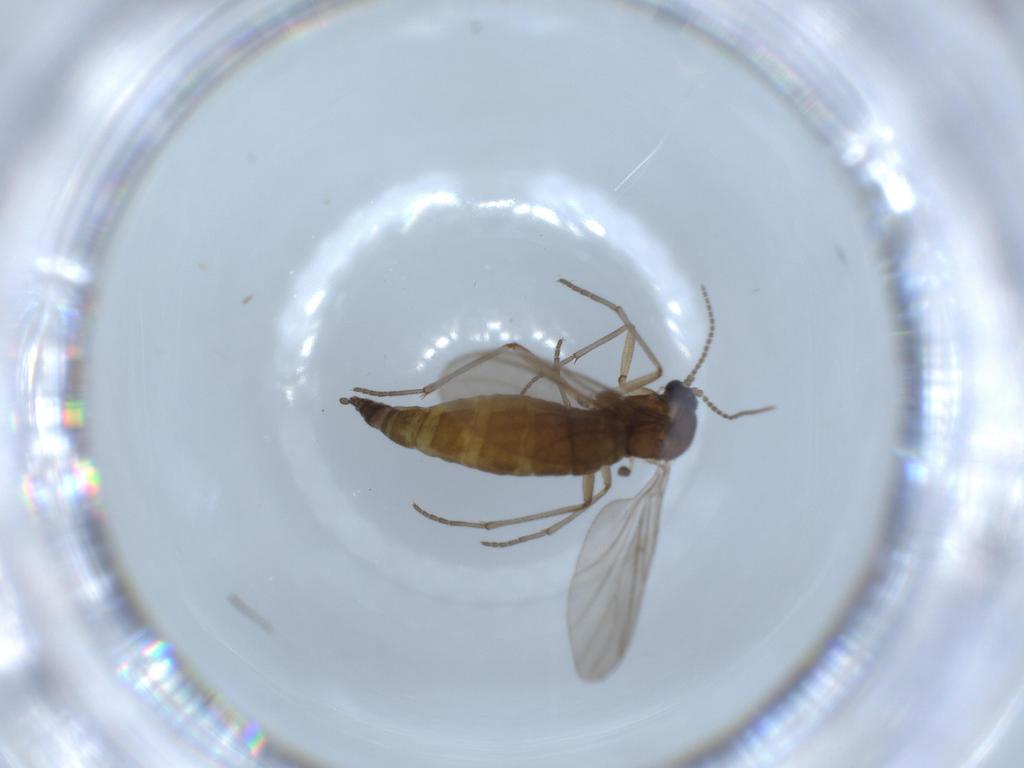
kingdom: Animalia
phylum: Arthropoda
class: Insecta
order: Diptera
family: Sciaridae
